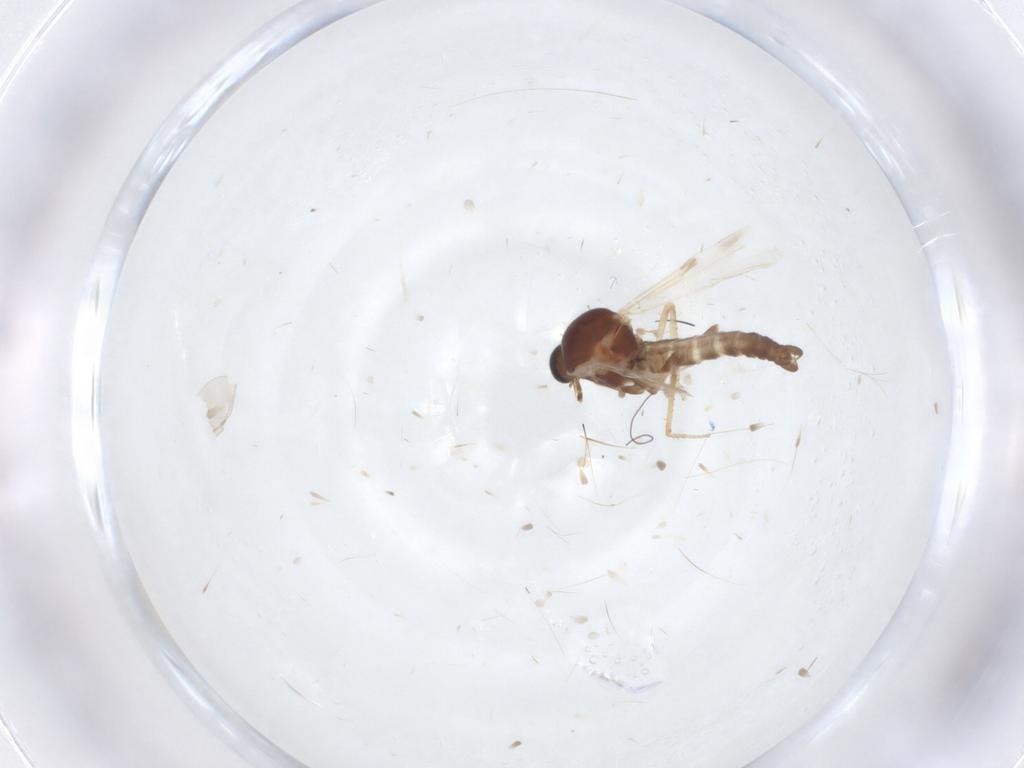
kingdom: Animalia
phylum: Arthropoda
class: Insecta
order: Diptera
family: Ceratopogonidae
